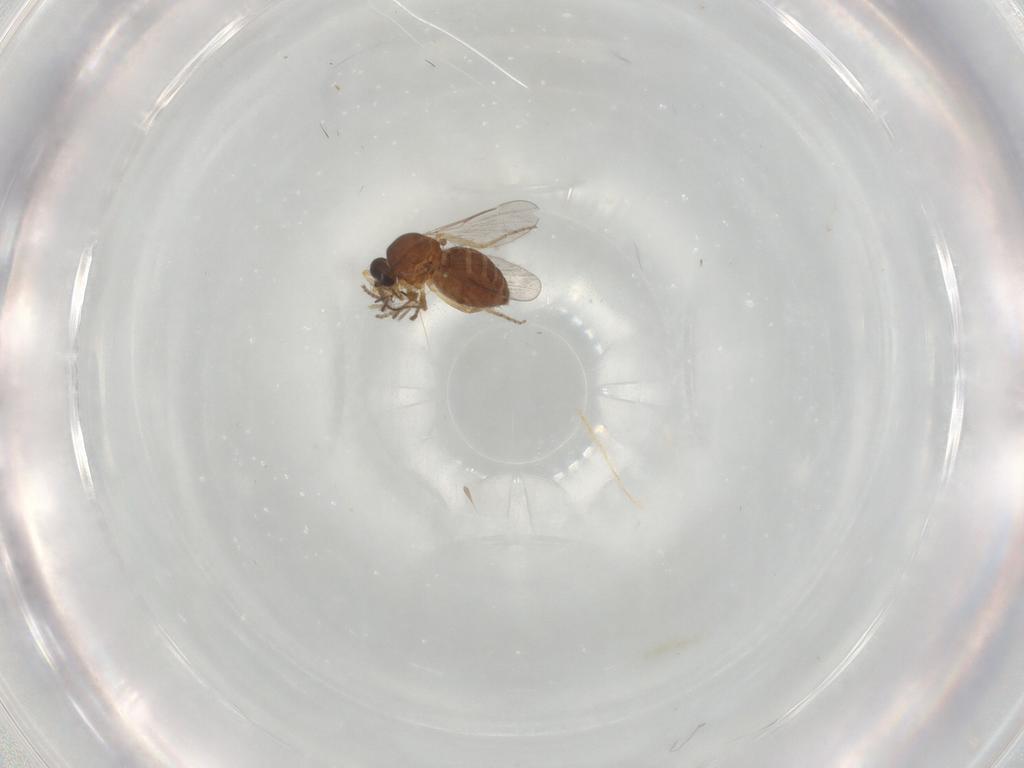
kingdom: Animalia
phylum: Arthropoda
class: Insecta
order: Diptera
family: Ceratopogonidae
